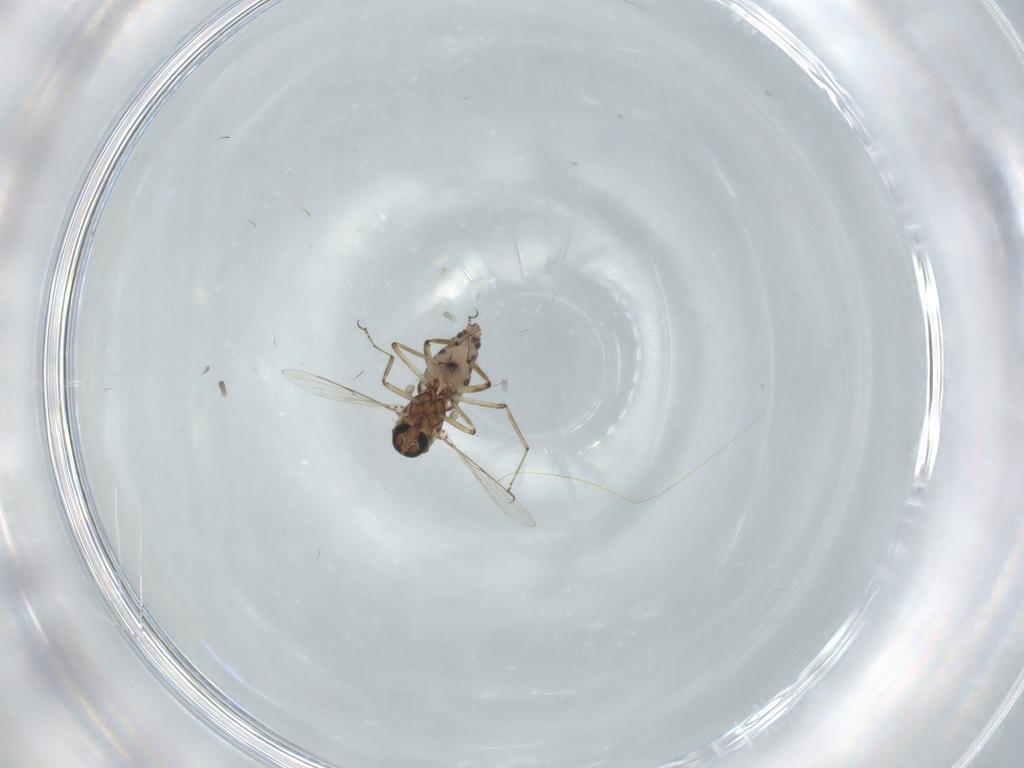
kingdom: Animalia
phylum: Arthropoda
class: Insecta
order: Diptera
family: Ceratopogonidae
